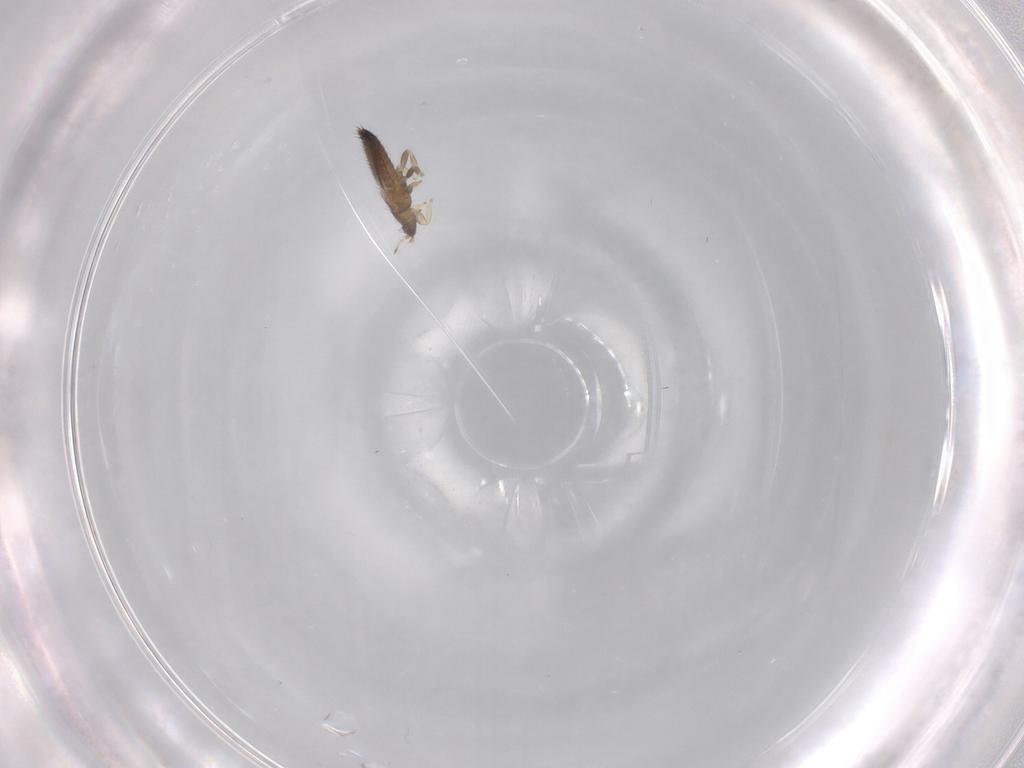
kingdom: Animalia
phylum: Arthropoda
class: Insecta
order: Thysanoptera
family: Thripidae
